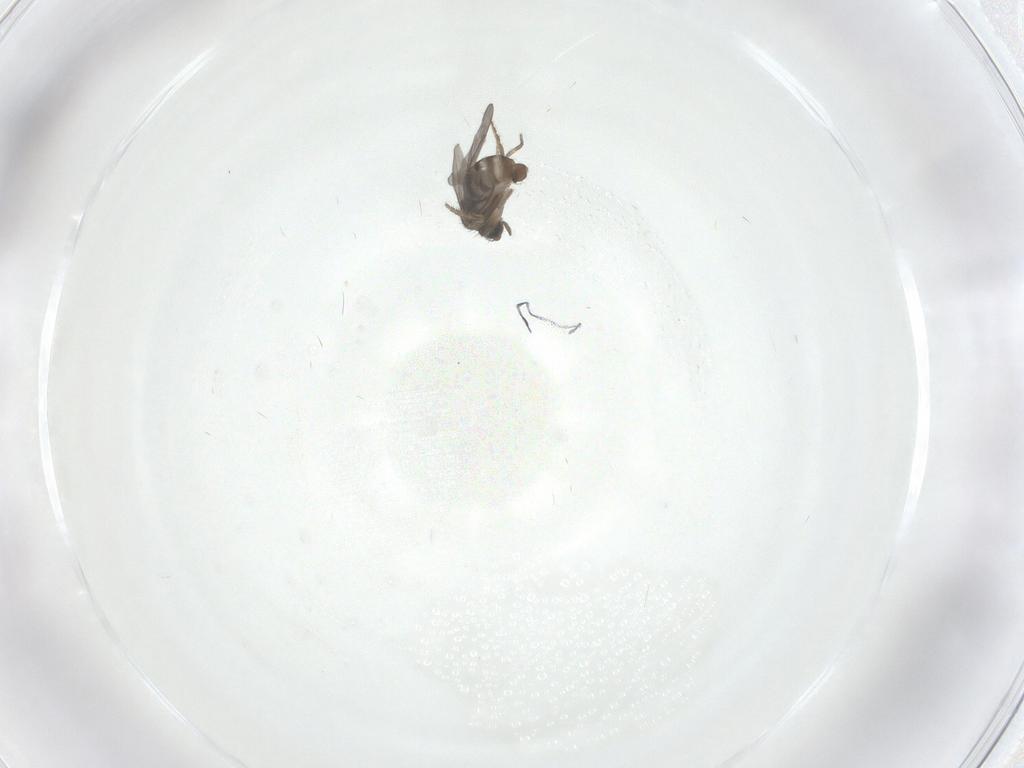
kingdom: Animalia
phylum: Arthropoda
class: Insecta
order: Diptera
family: Drosophilidae
